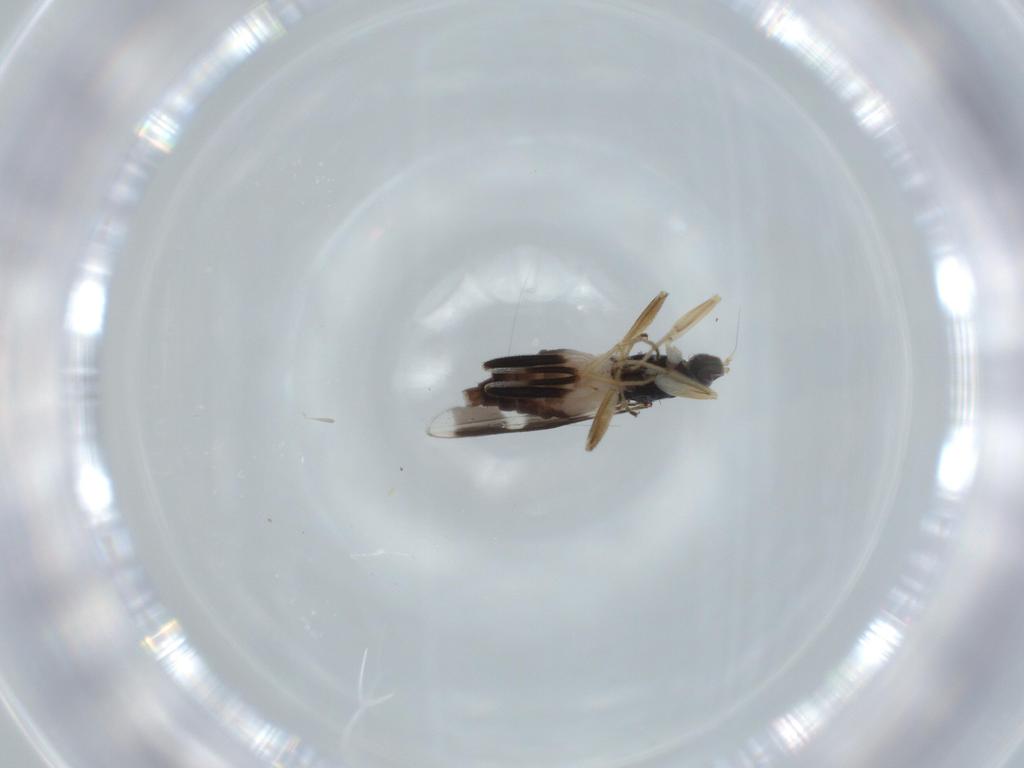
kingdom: Animalia
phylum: Arthropoda
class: Insecta
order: Diptera
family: Hybotidae
